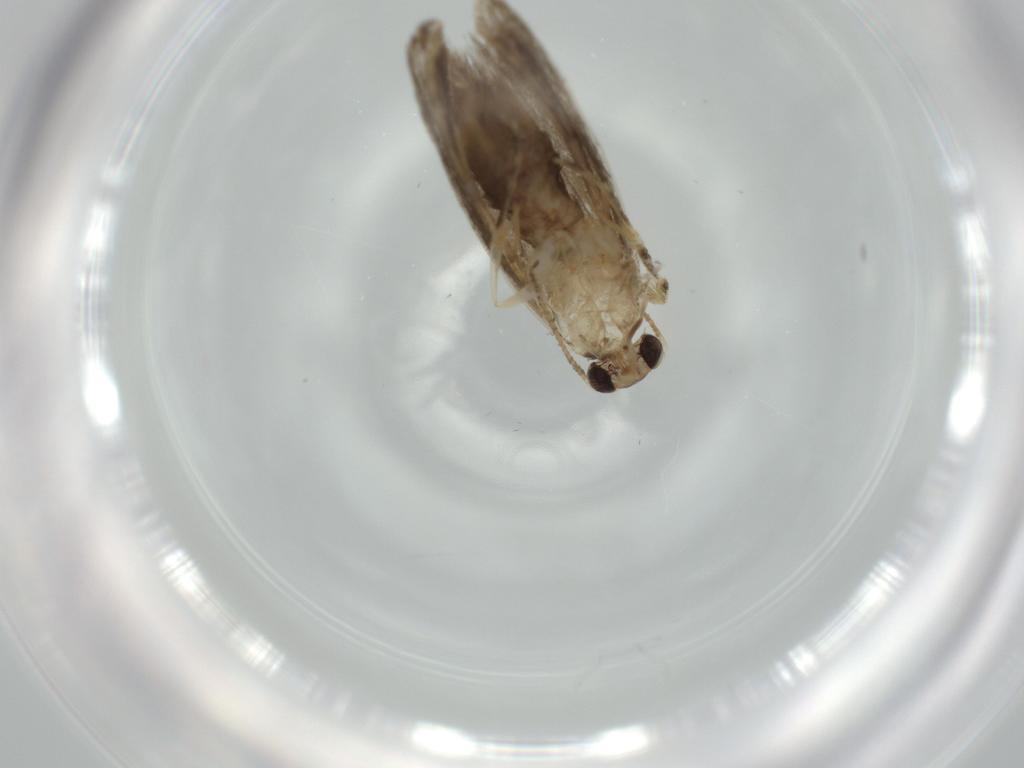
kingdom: Animalia
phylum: Arthropoda
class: Insecta
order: Lepidoptera
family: Tineidae
